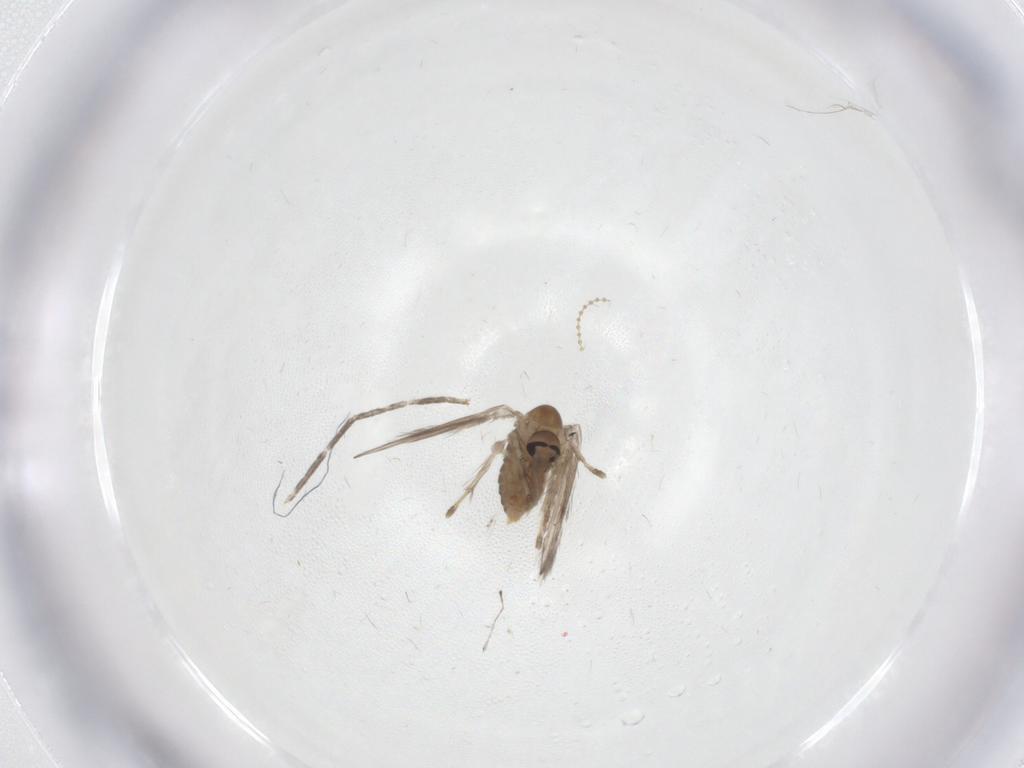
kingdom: Animalia
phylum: Arthropoda
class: Insecta
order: Diptera
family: Psychodidae
